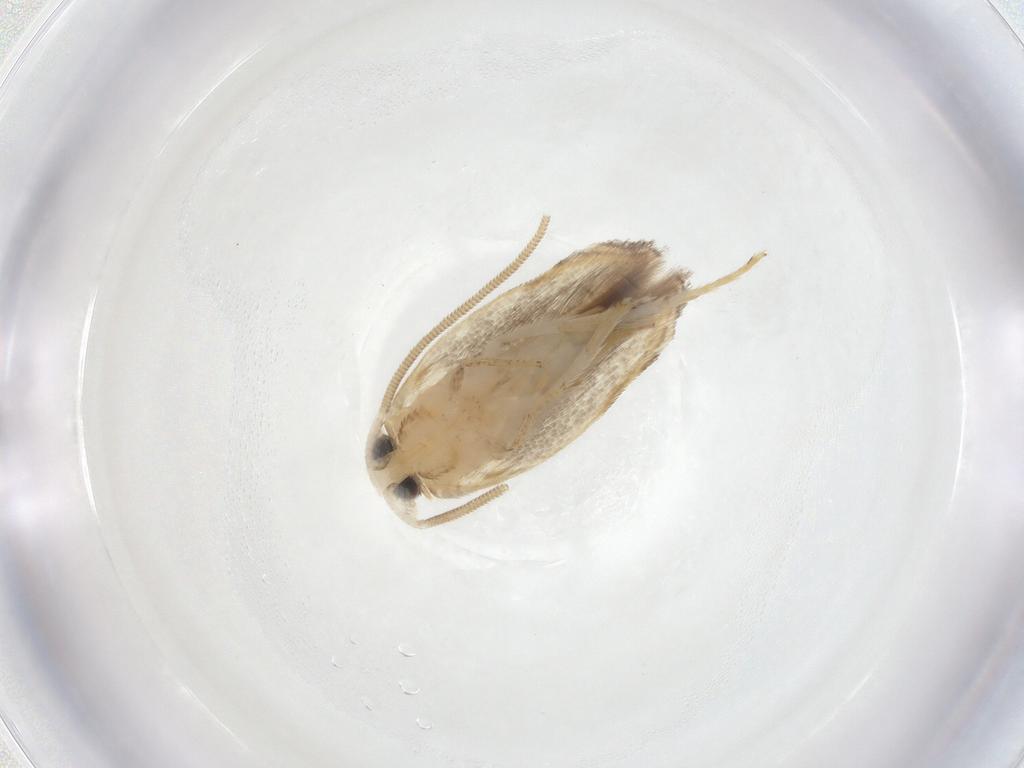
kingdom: Animalia
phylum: Arthropoda
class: Insecta
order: Lepidoptera
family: Opostegidae
